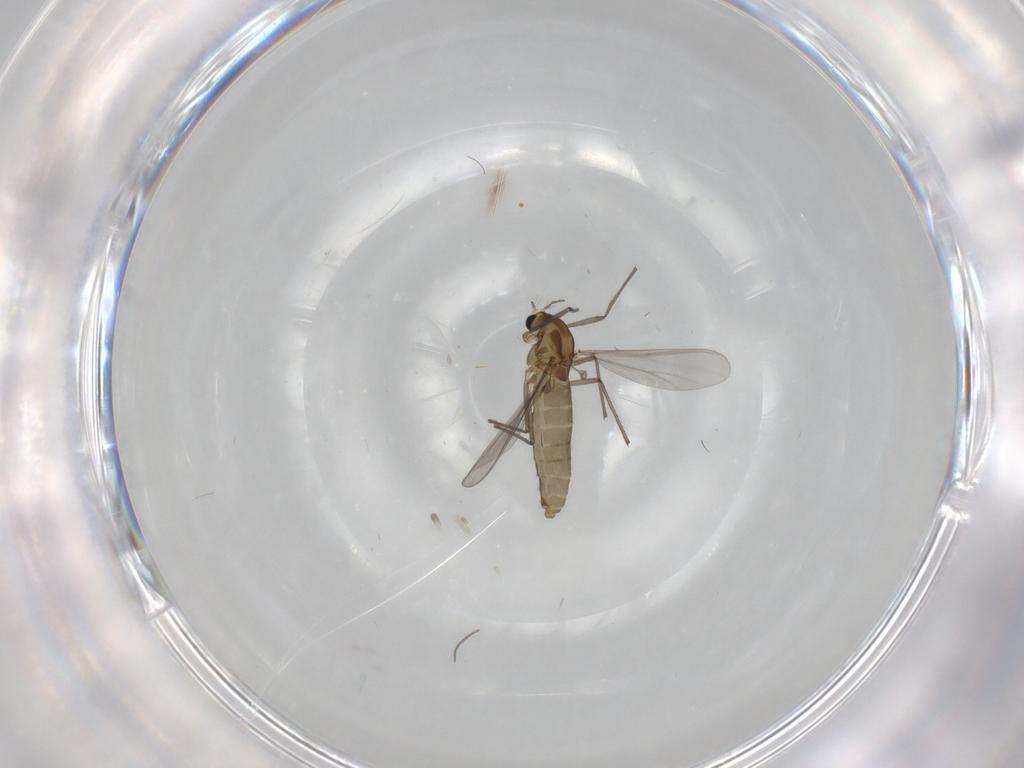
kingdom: Animalia
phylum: Arthropoda
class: Insecta
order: Diptera
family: Cecidomyiidae
